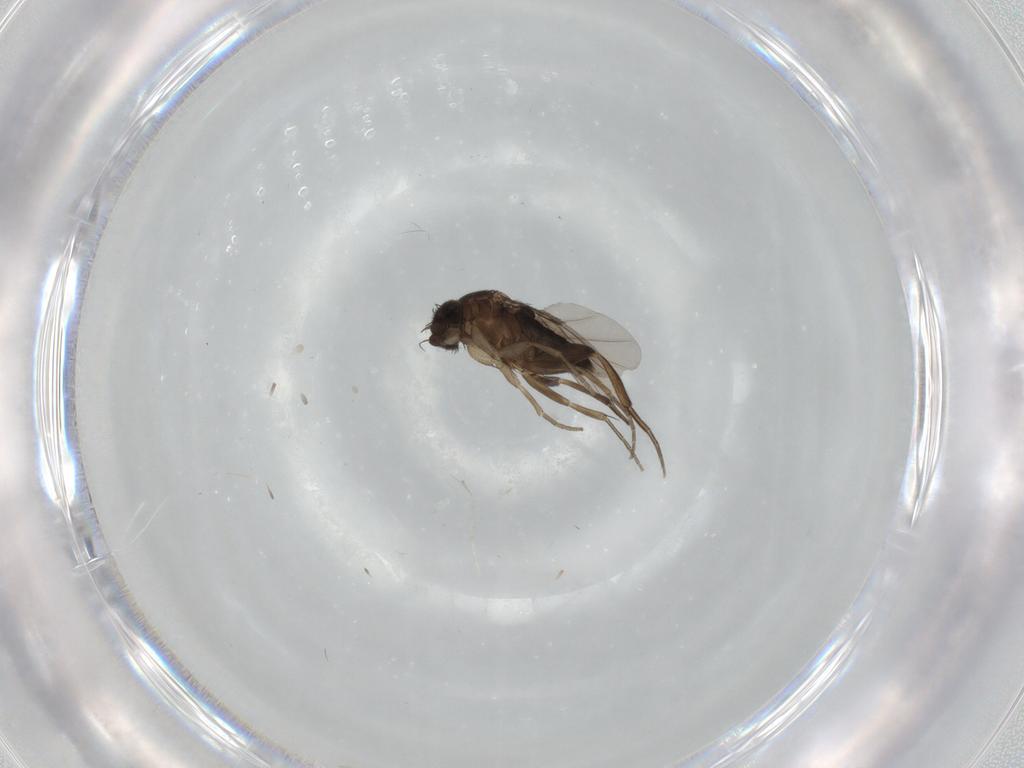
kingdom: Animalia
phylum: Arthropoda
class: Insecta
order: Diptera
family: Phoridae
